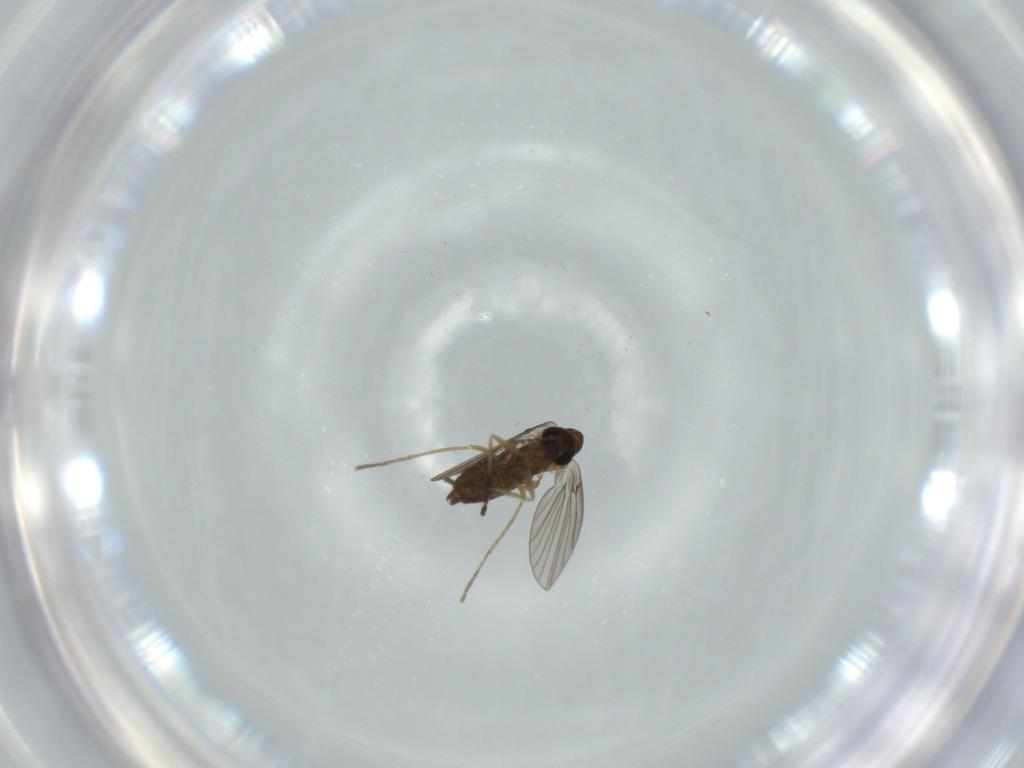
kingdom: Animalia
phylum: Arthropoda
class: Insecta
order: Diptera
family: Psychodidae
